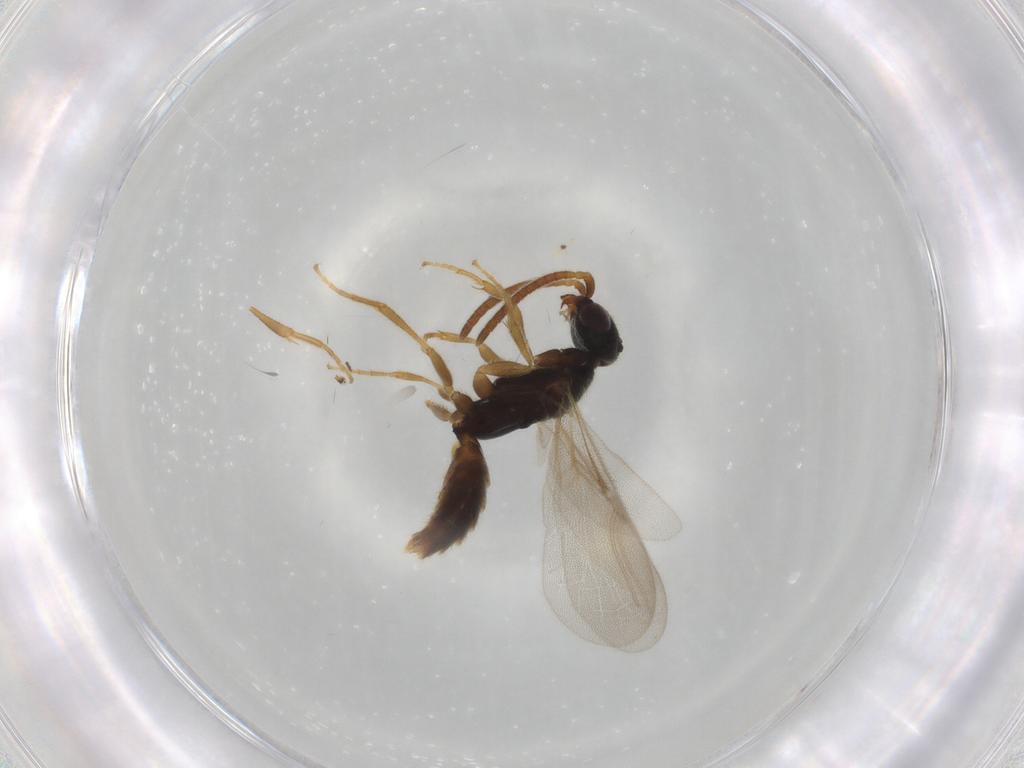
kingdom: Animalia
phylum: Arthropoda
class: Insecta
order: Hymenoptera
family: Bethylidae
